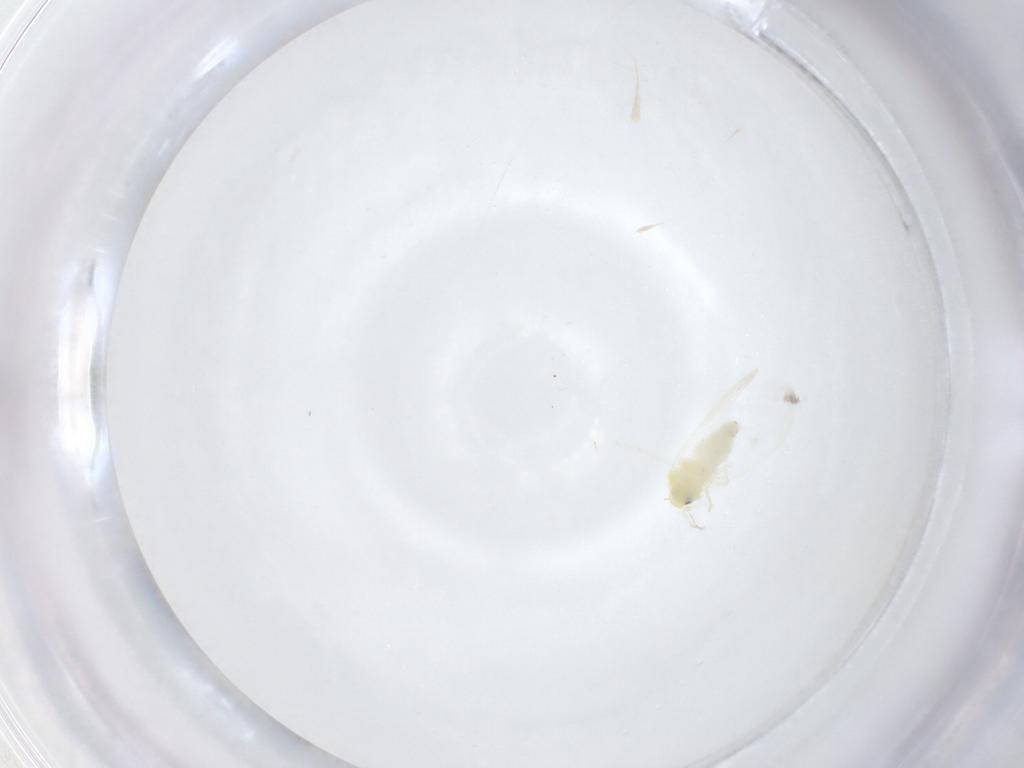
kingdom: Animalia
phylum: Arthropoda
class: Insecta
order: Hemiptera
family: Aleyrodidae
